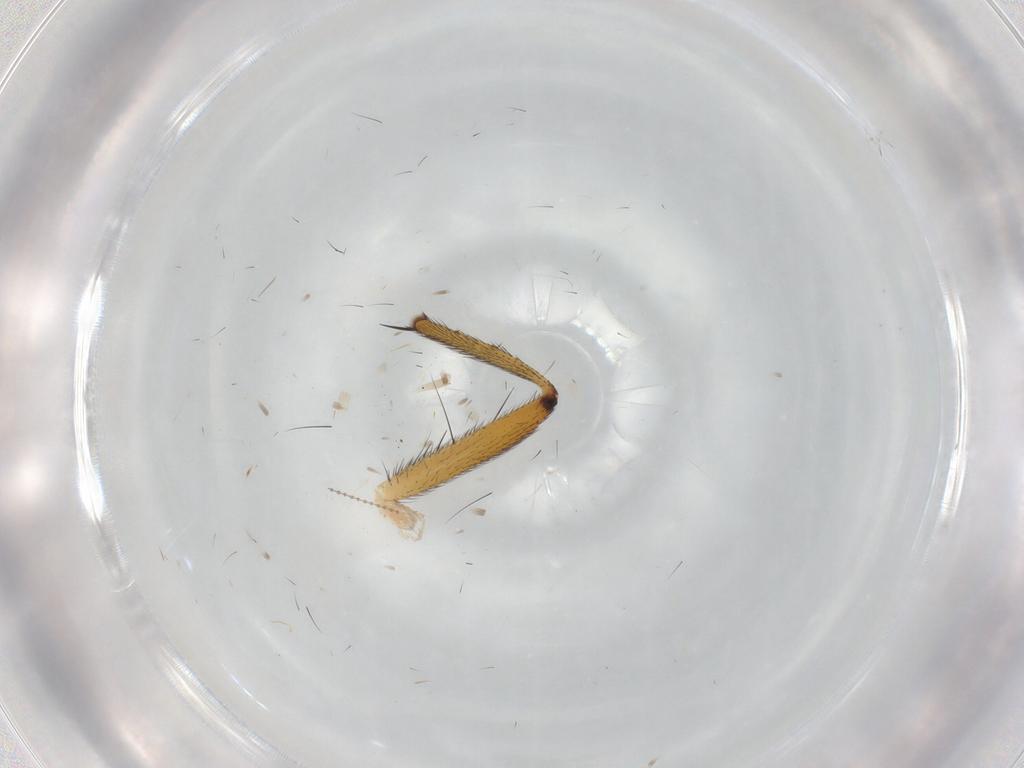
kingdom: Animalia
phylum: Arthropoda
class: Insecta
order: Diptera
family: Muscidae
